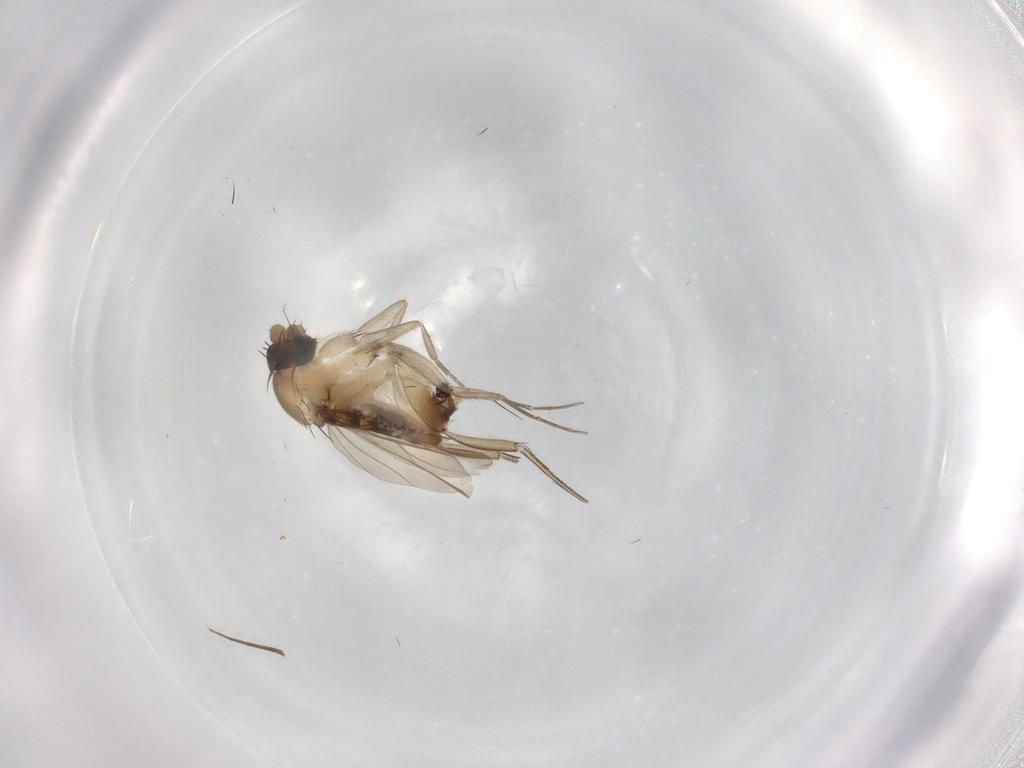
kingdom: Animalia
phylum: Arthropoda
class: Insecta
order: Diptera
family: Phoridae
